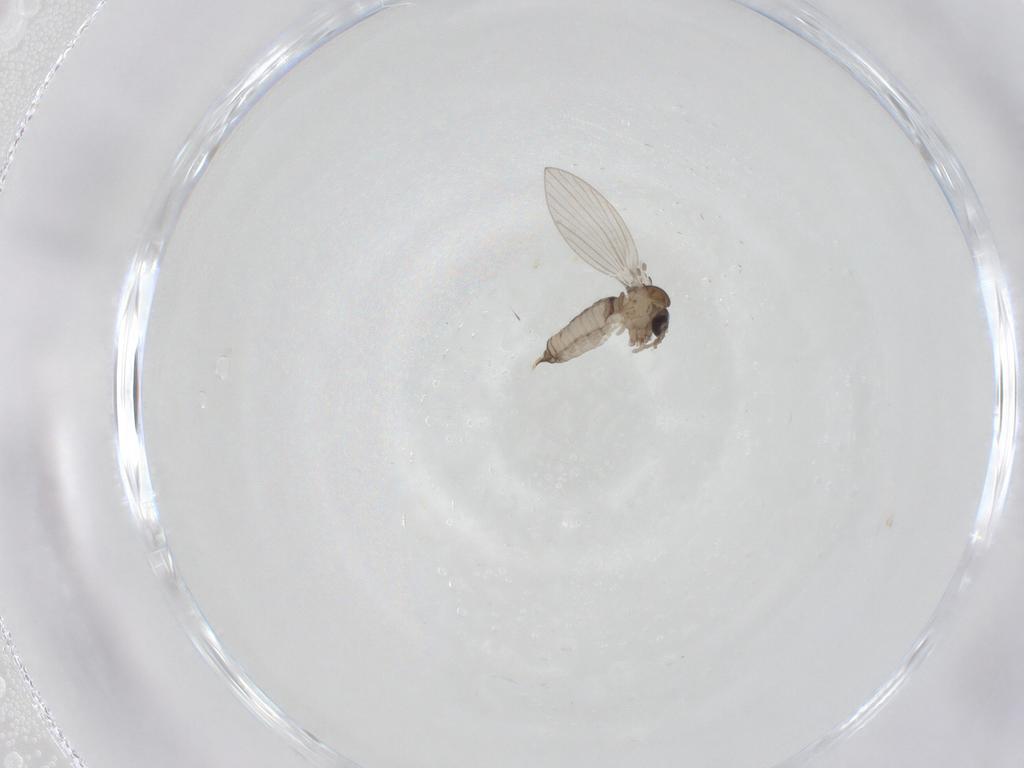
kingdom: Animalia
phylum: Arthropoda
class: Insecta
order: Diptera
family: Psychodidae
